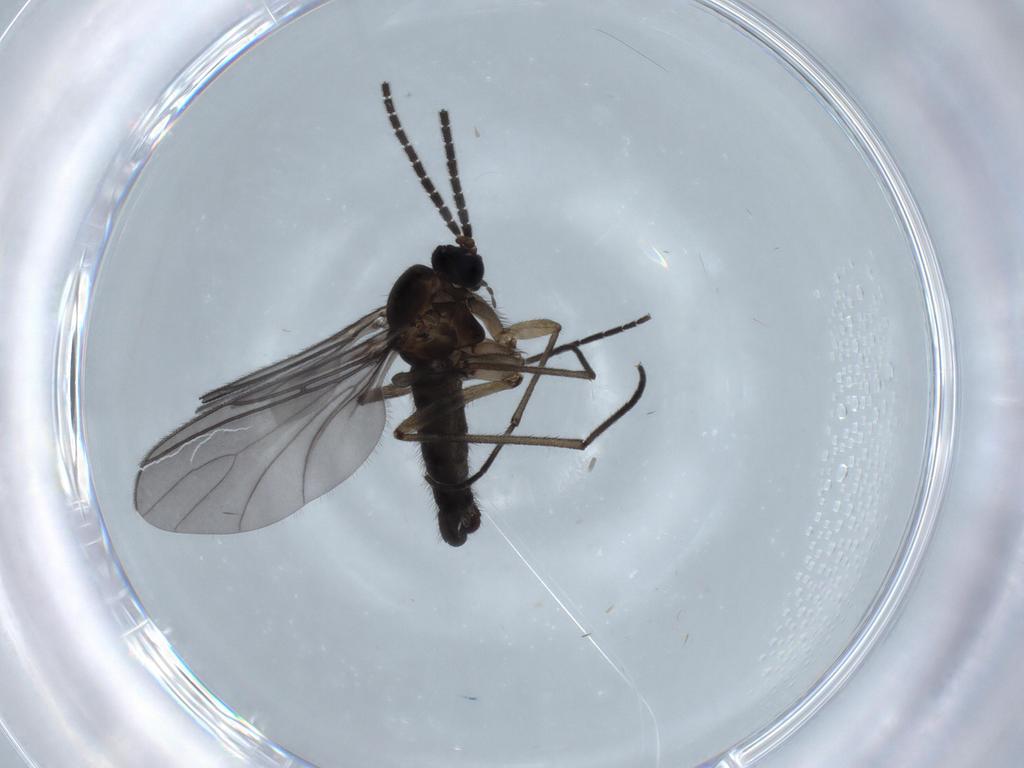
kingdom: Animalia
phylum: Arthropoda
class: Insecta
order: Diptera
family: Sciaridae
